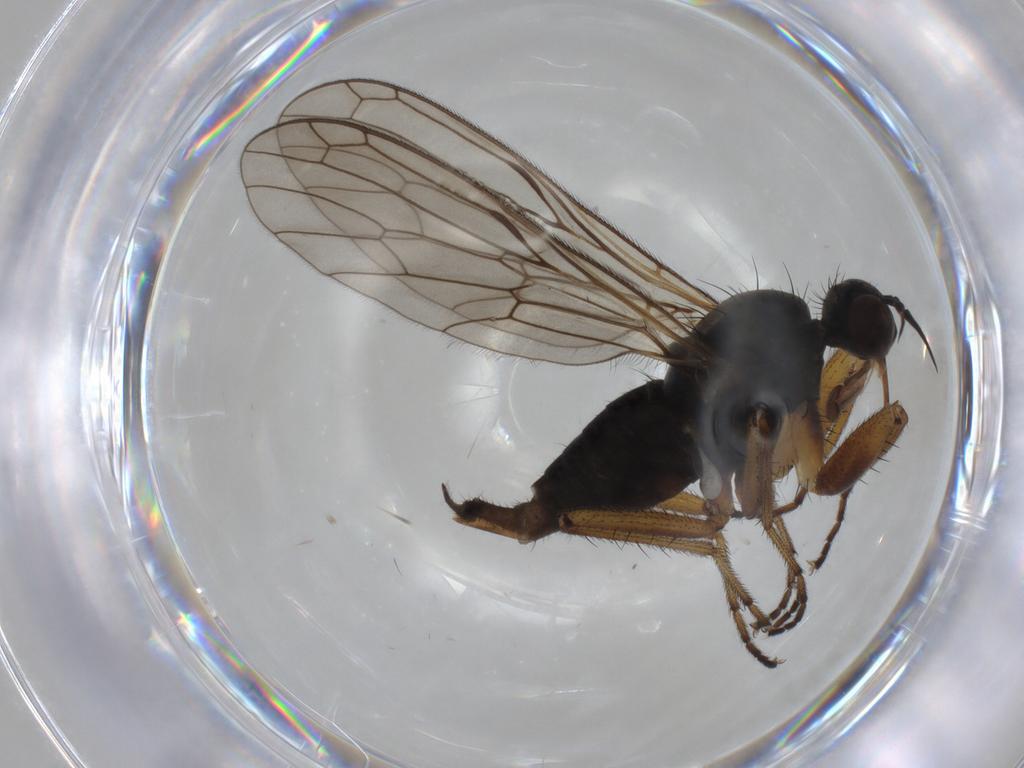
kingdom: Animalia
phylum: Arthropoda
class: Insecta
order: Diptera
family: Empididae
